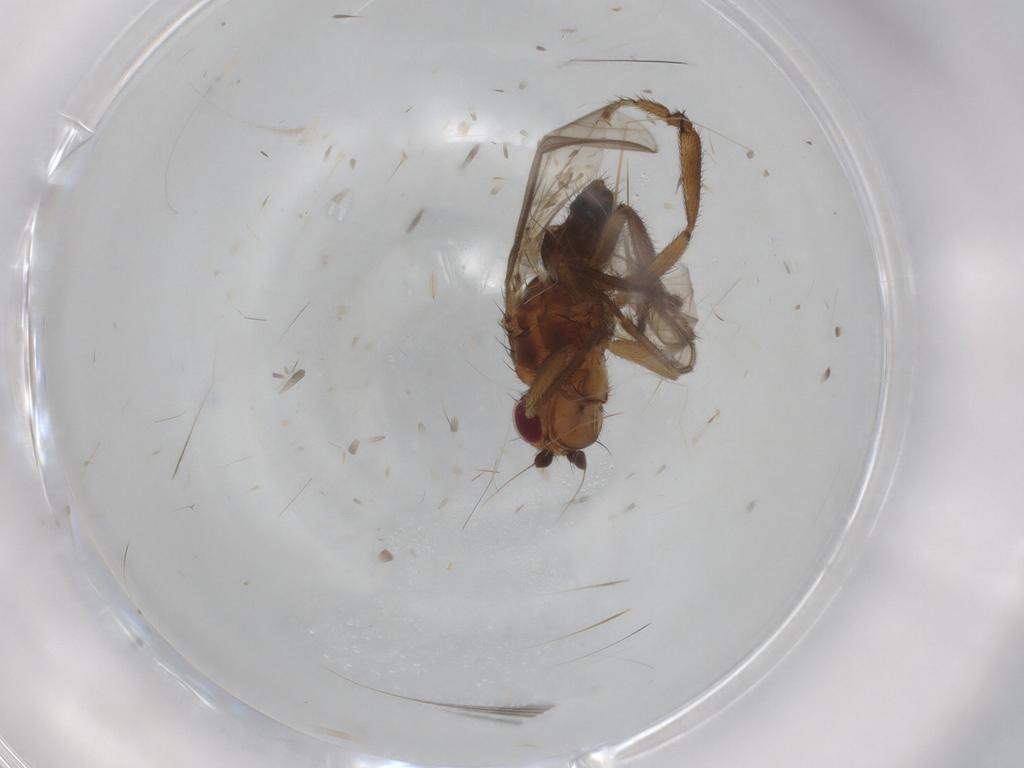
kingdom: Animalia
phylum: Arthropoda
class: Insecta
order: Diptera
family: Sphaeroceridae
